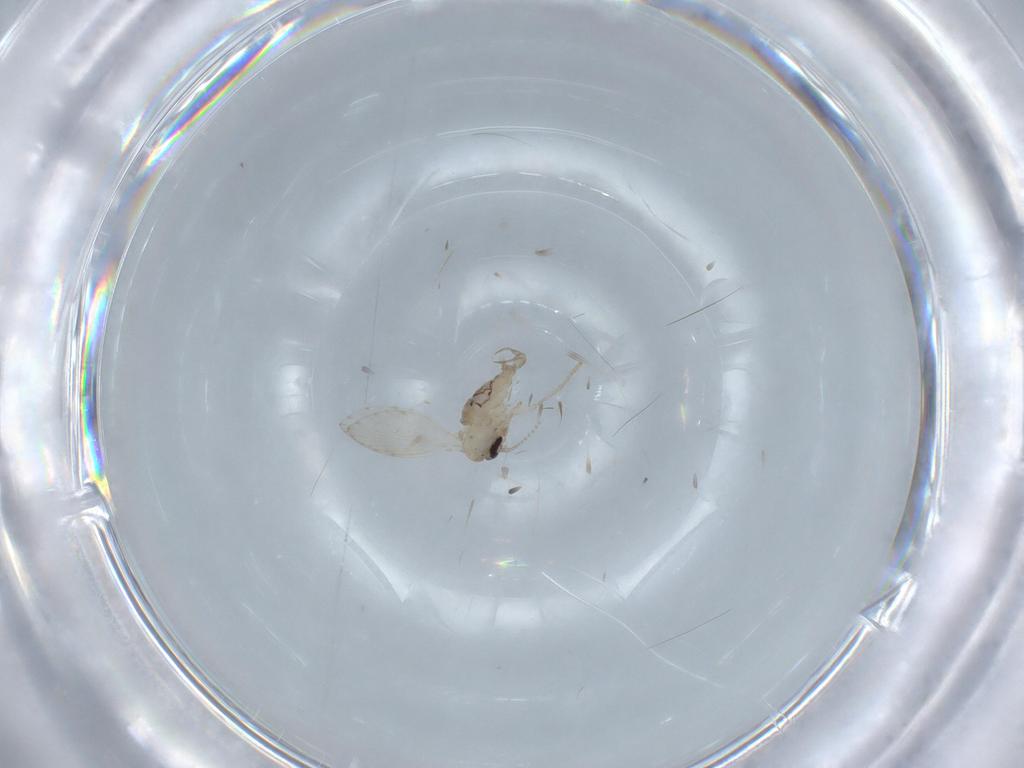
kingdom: Animalia
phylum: Arthropoda
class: Insecta
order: Diptera
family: Psychodidae
